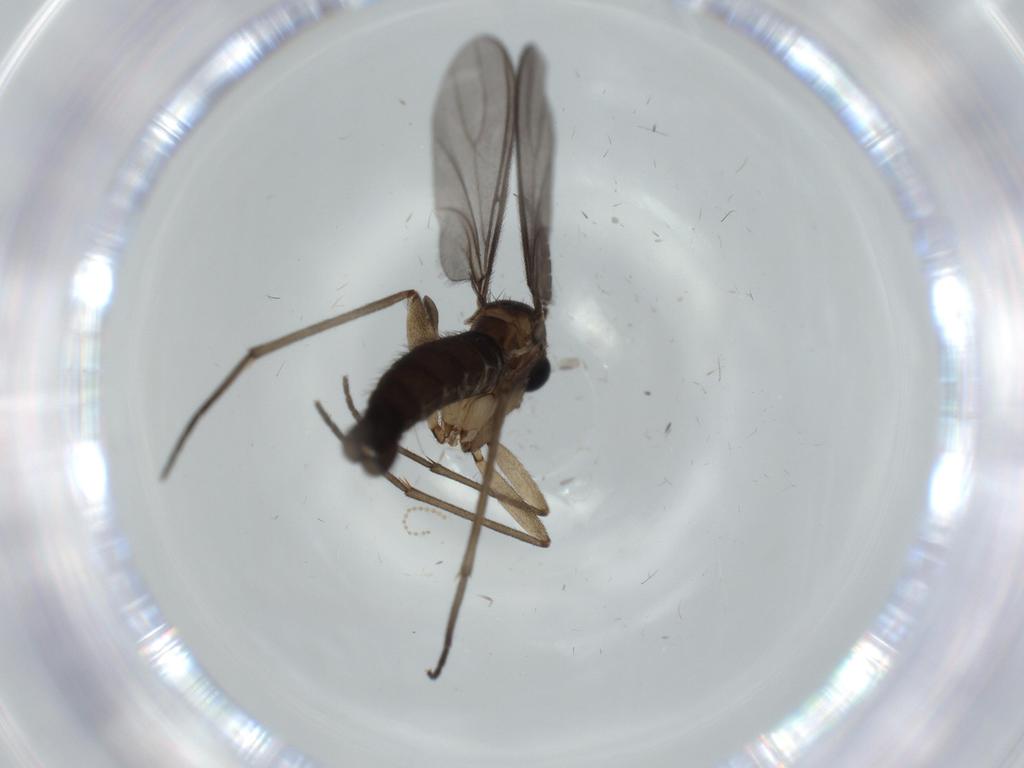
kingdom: Animalia
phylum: Arthropoda
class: Insecta
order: Diptera
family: Sciaridae
